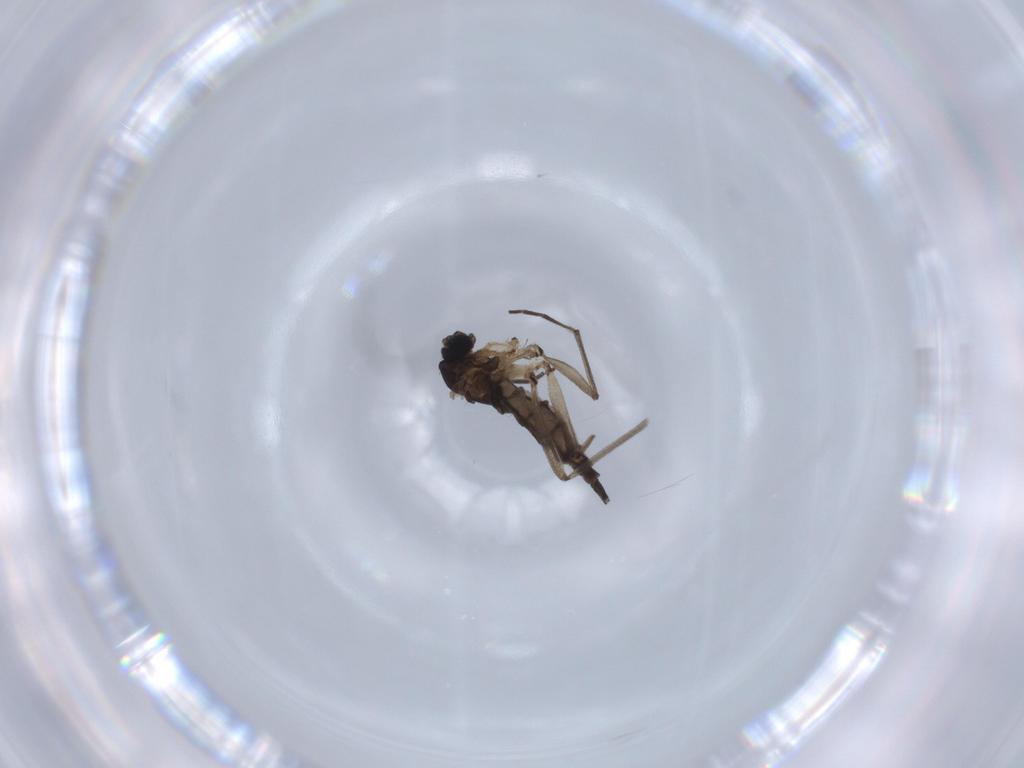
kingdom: Animalia
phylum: Arthropoda
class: Insecta
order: Diptera
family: Sciaridae
